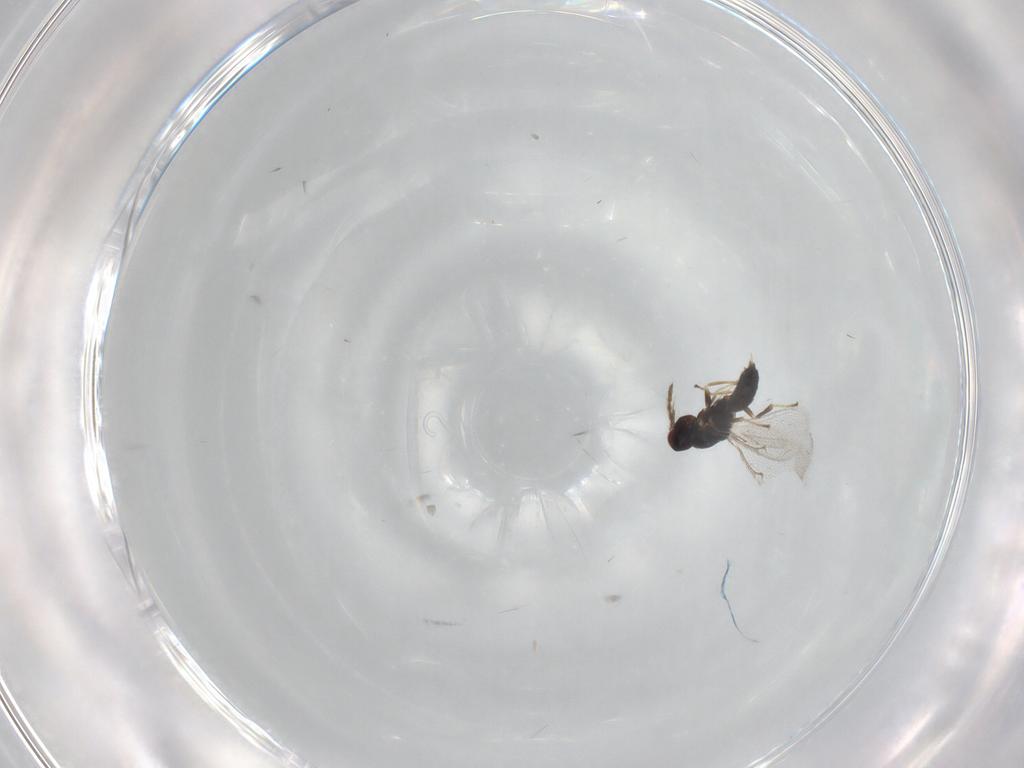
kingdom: Animalia
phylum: Arthropoda
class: Insecta
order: Hymenoptera
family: Eulophidae
